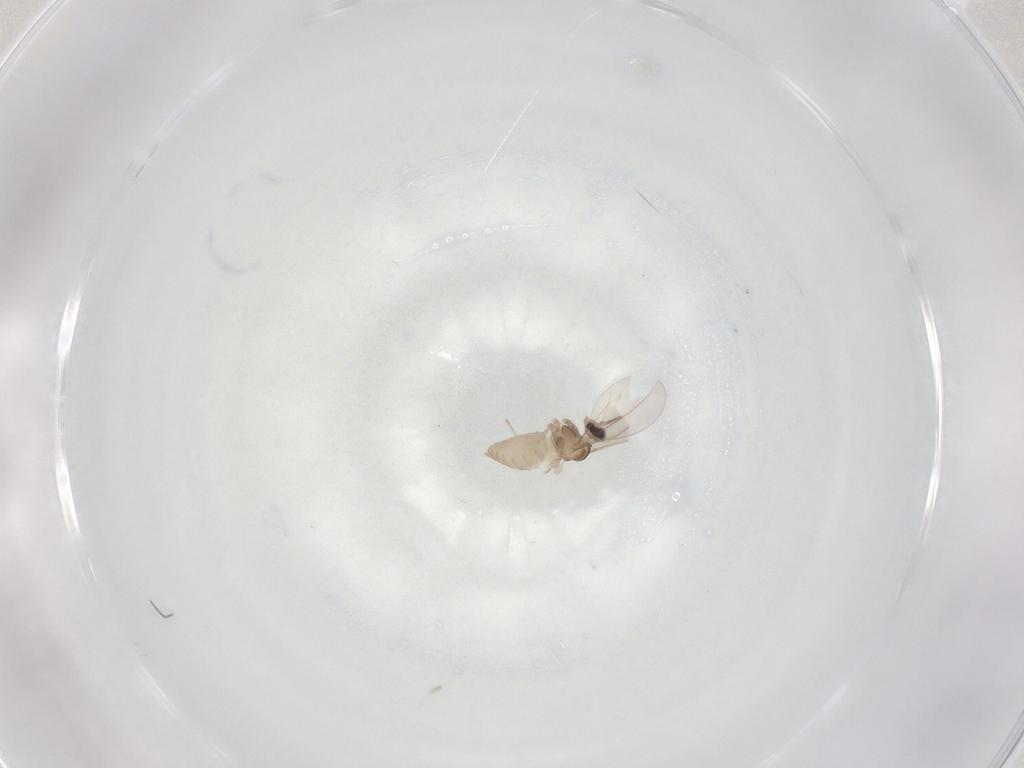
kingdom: Animalia
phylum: Arthropoda
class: Insecta
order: Diptera
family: Cecidomyiidae
